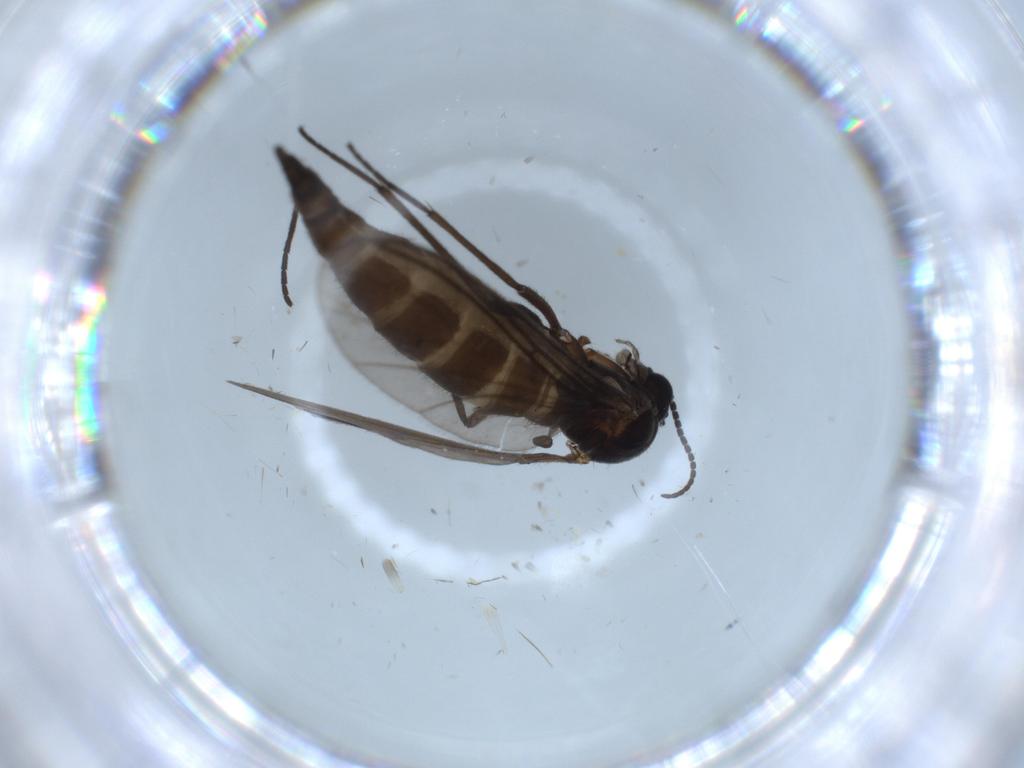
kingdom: Animalia
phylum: Arthropoda
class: Insecta
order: Diptera
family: Sciaridae
